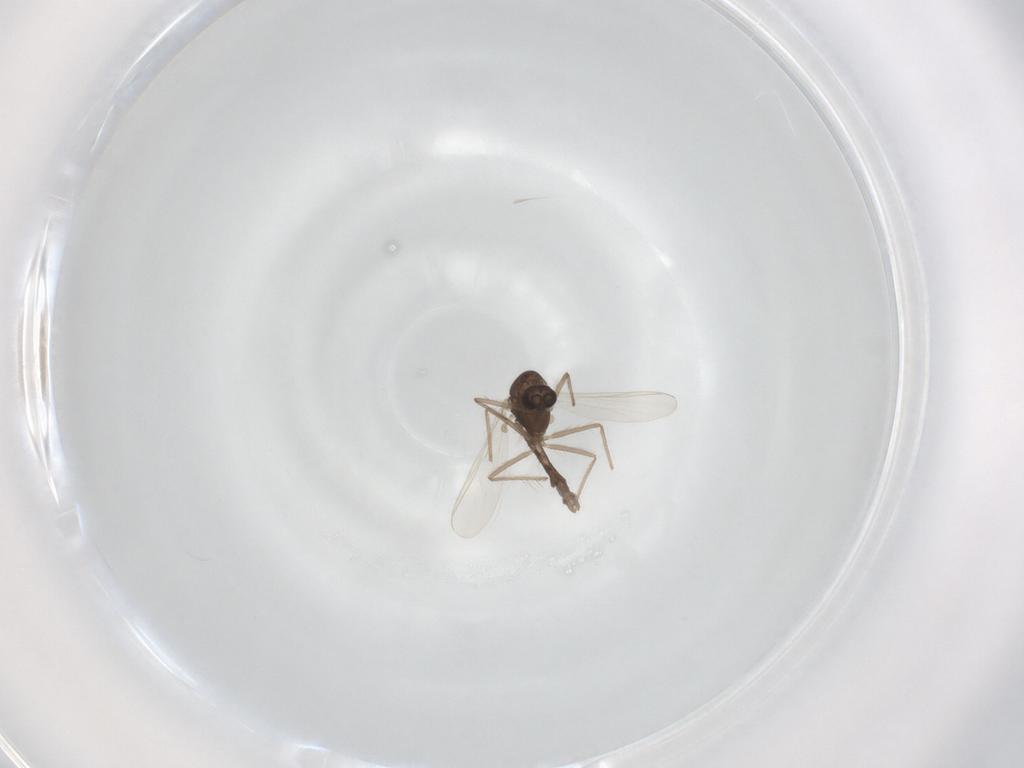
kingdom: Animalia
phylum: Arthropoda
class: Insecta
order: Diptera
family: Chironomidae
